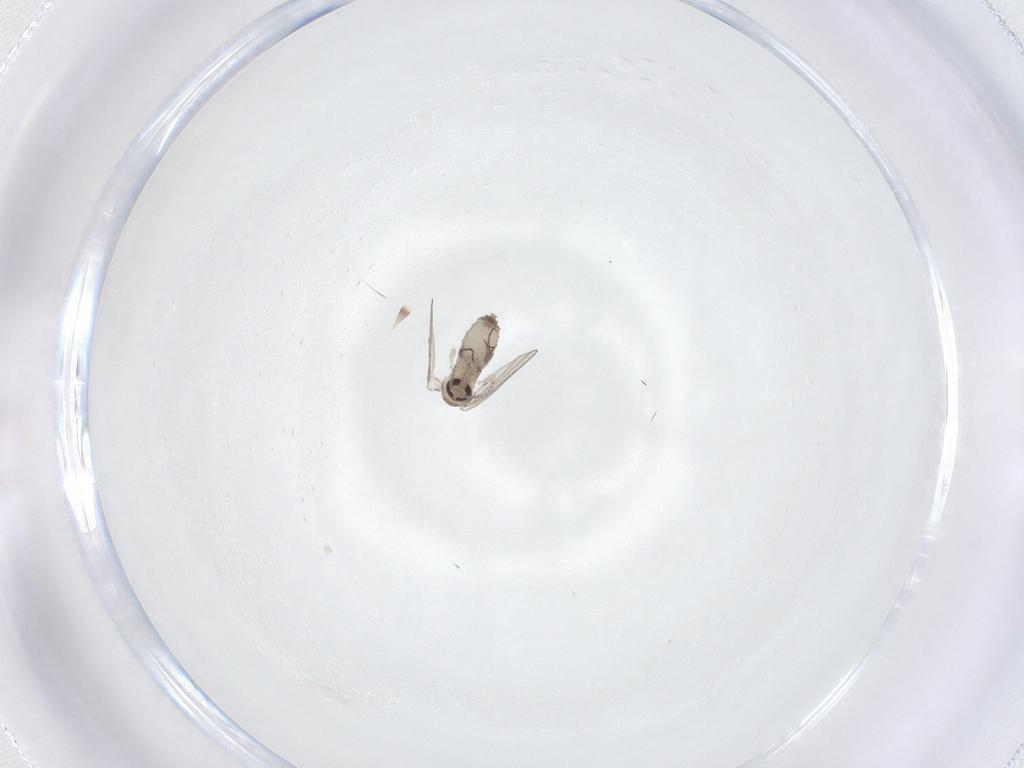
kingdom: Animalia
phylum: Arthropoda
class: Insecta
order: Diptera
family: Psychodidae
